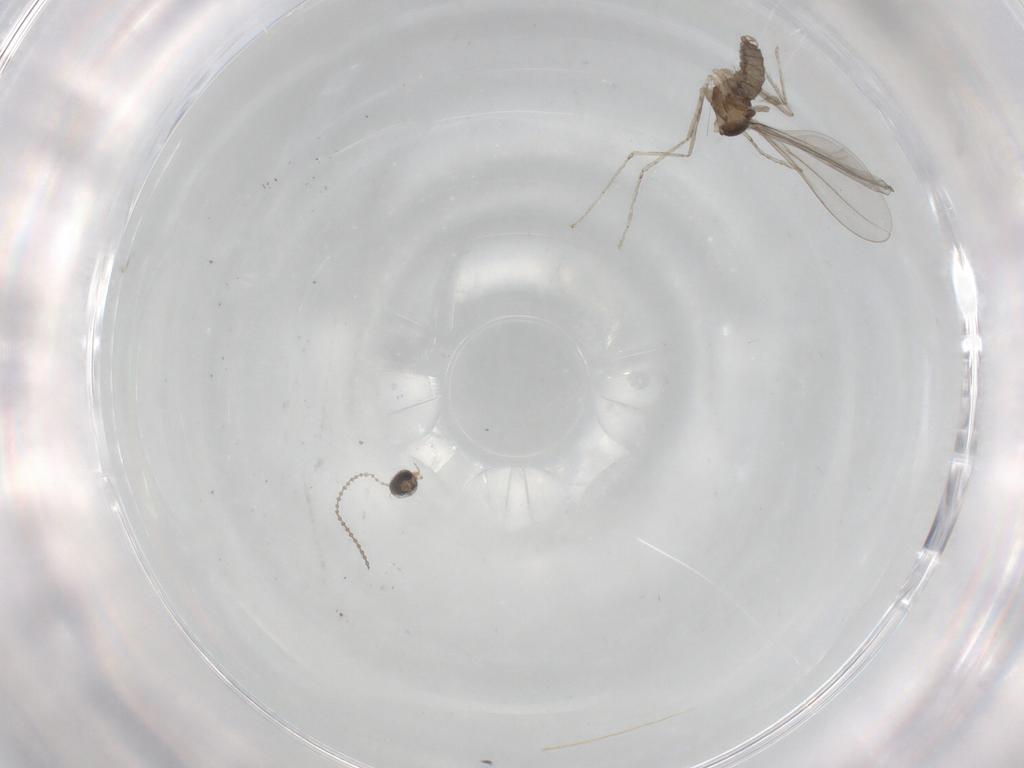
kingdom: Animalia
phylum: Arthropoda
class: Insecta
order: Diptera
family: Cecidomyiidae
